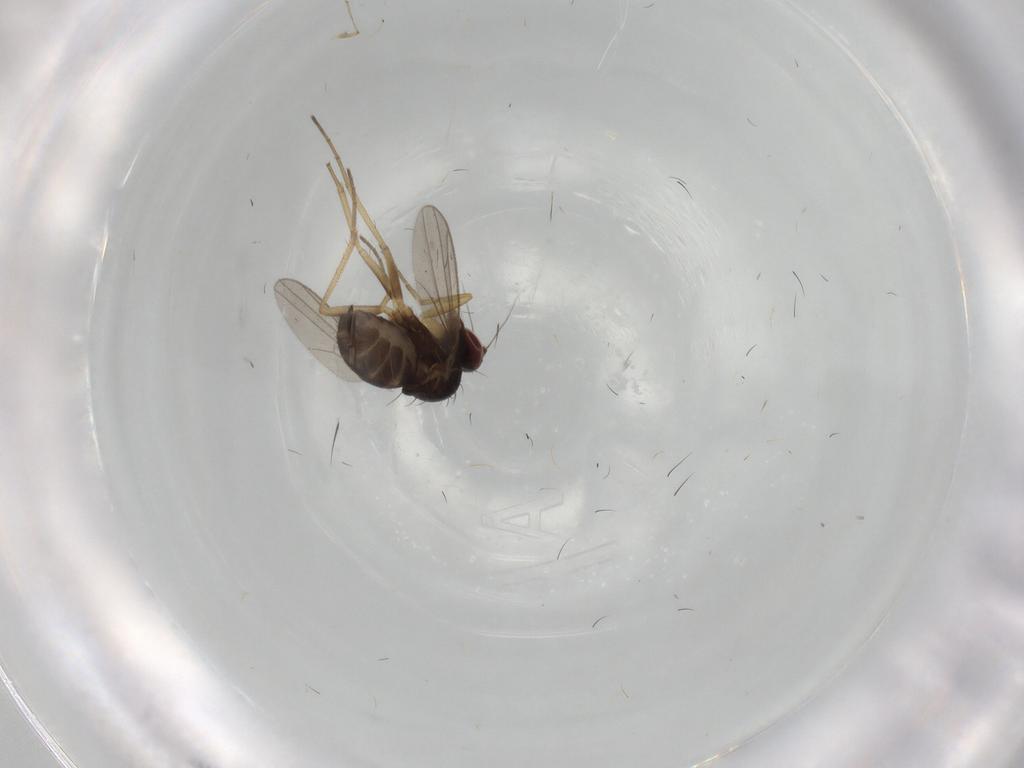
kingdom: Animalia
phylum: Arthropoda
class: Insecta
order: Diptera
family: Dolichopodidae
